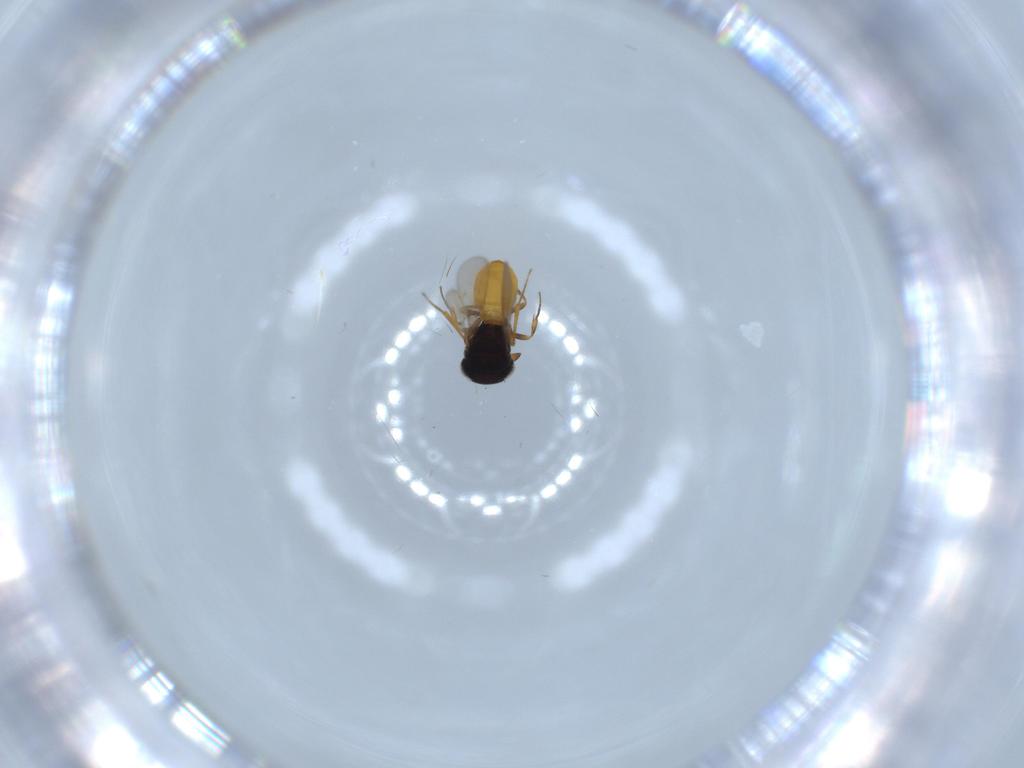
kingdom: Animalia
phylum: Arthropoda
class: Insecta
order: Hymenoptera
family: Scelionidae
